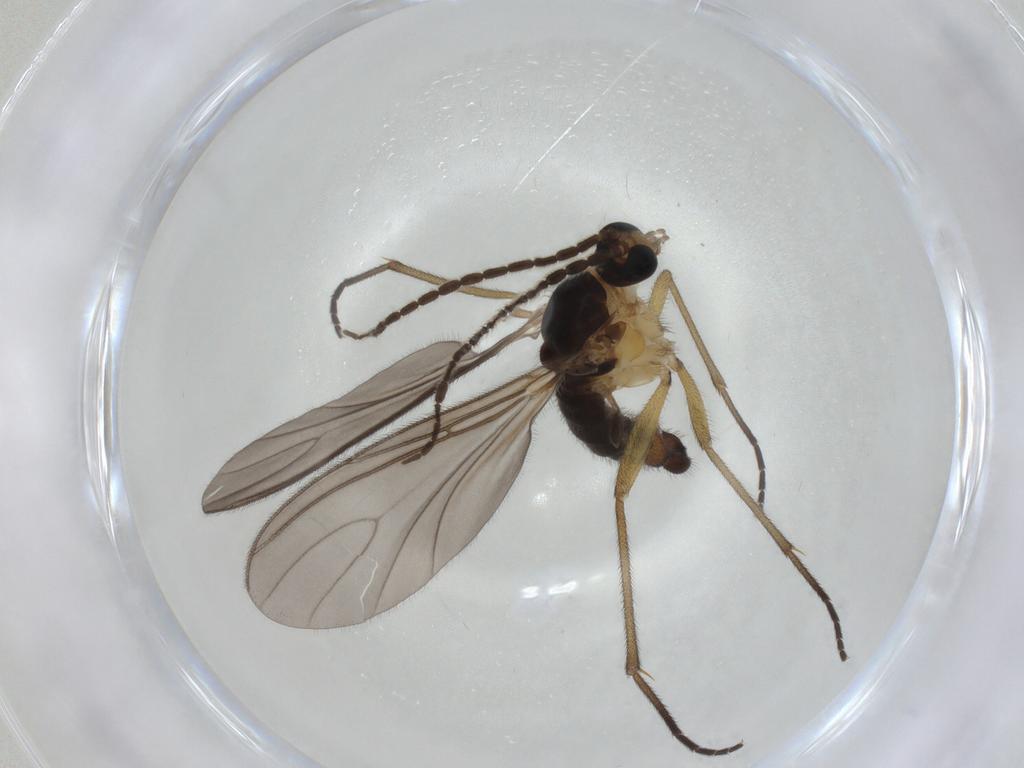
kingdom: Animalia
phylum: Arthropoda
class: Insecta
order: Diptera
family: Sciaridae
